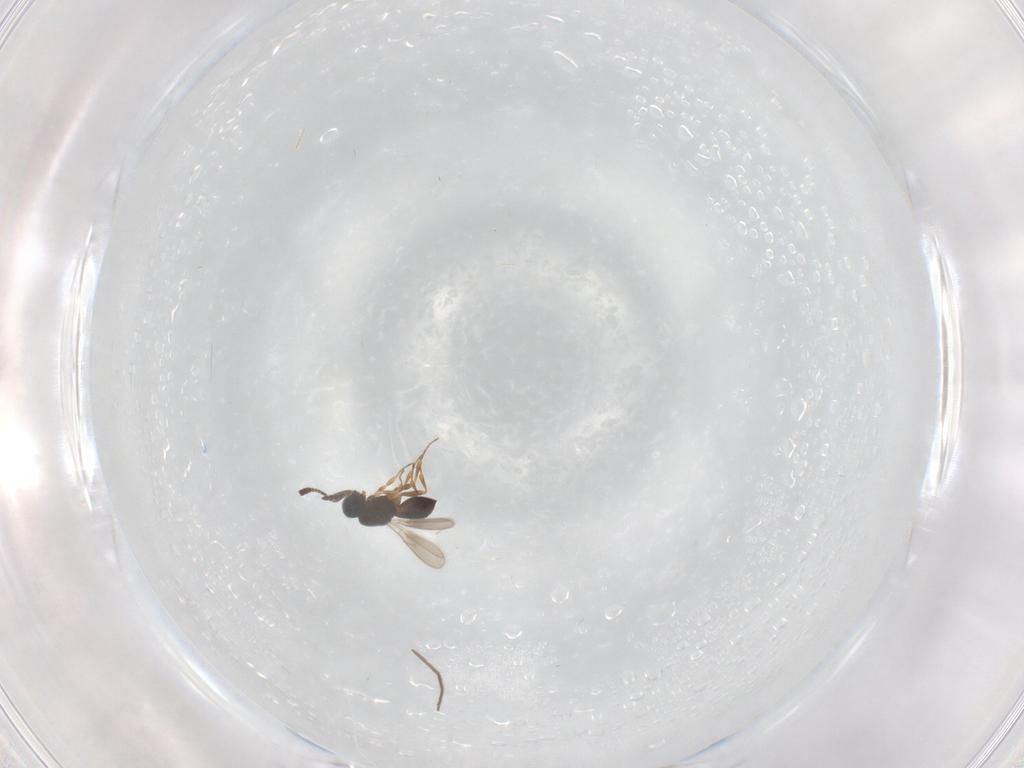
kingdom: Animalia
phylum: Arthropoda
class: Insecta
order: Hymenoptera
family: Scelionidae
